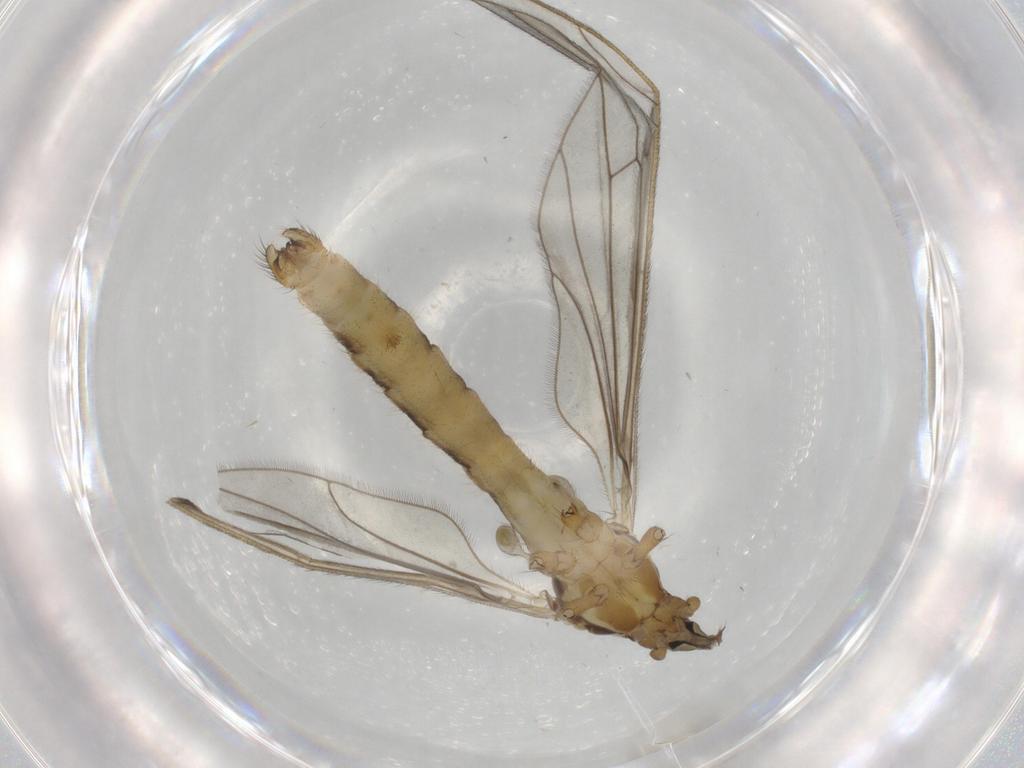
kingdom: Animalia
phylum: Arthropoda
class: Insecta
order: Diptera
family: Limoniidae
